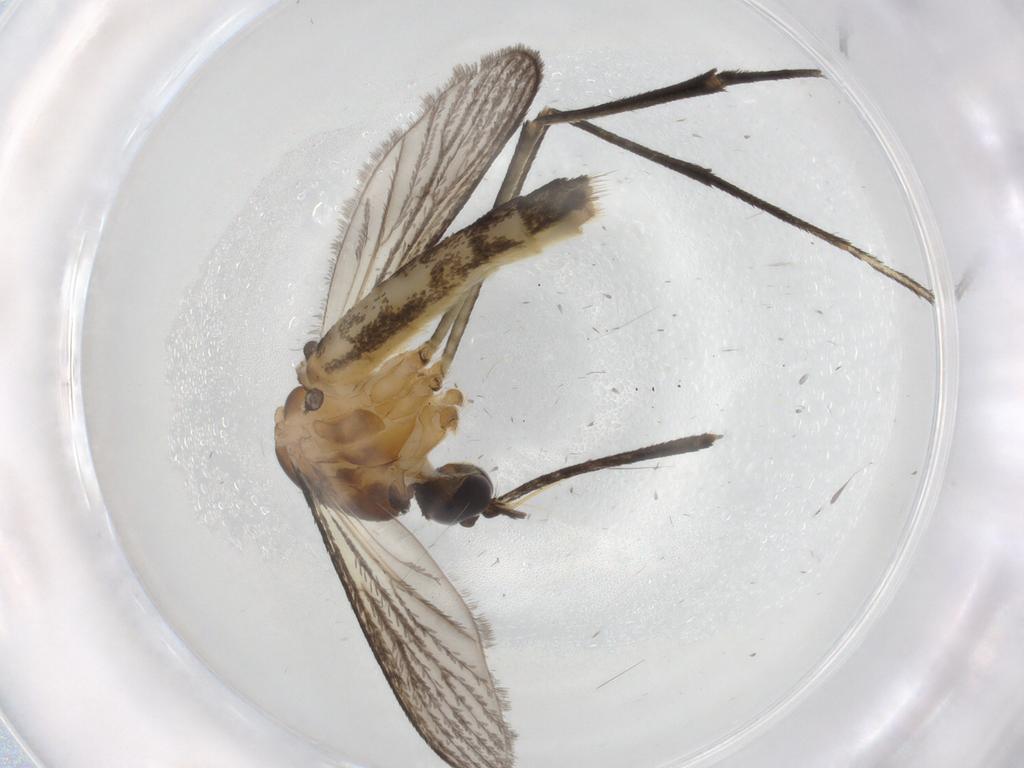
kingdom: Animalia
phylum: Arthropoda
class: Insecta
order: Diptera
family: Phoridae
